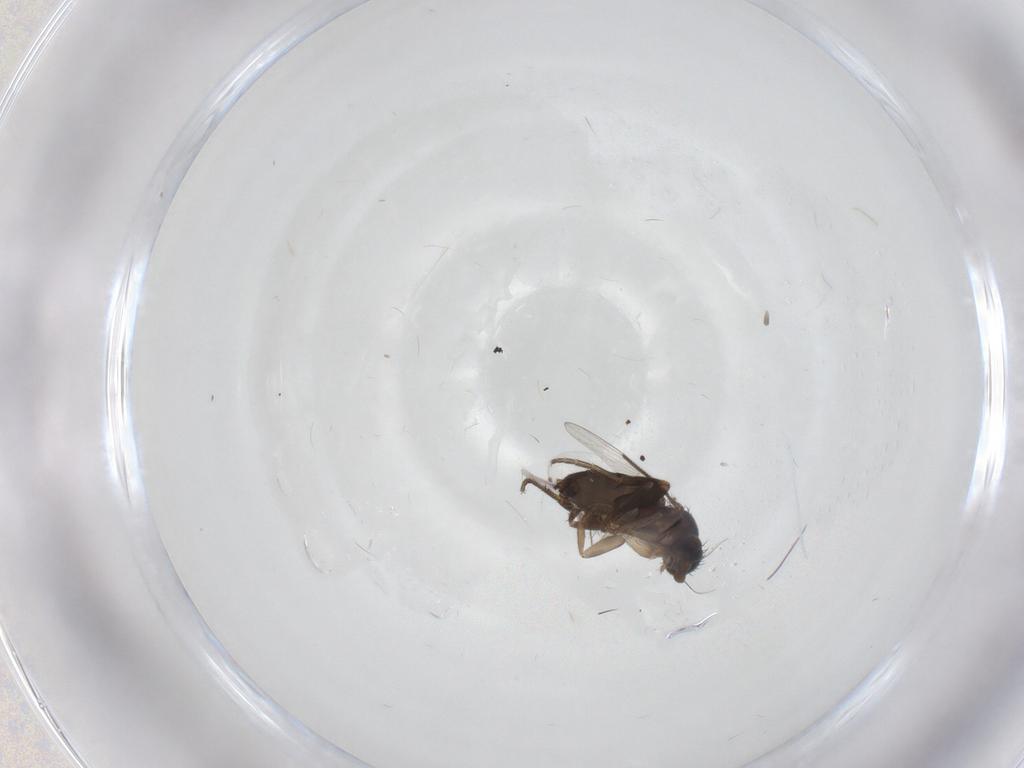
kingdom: Animalia
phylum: Arthropoda
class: Insecta
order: Diptera
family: Phoridae
